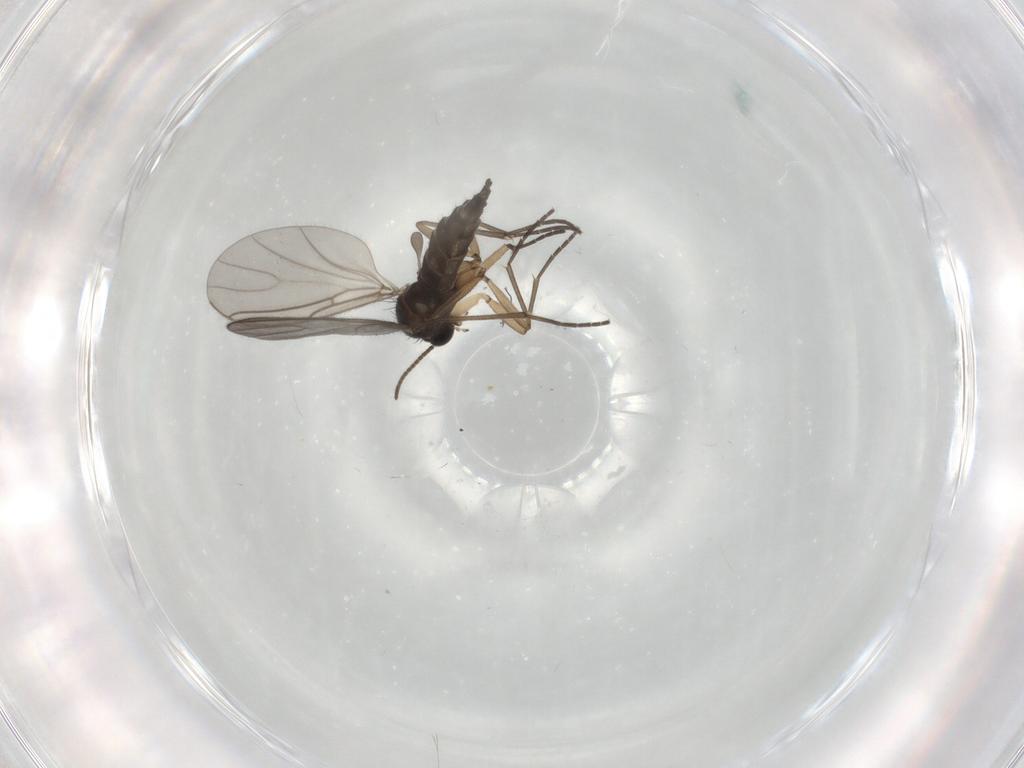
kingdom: Animalia
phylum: Arthropoda
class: Insecta
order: Diptera
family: Sciaridae
